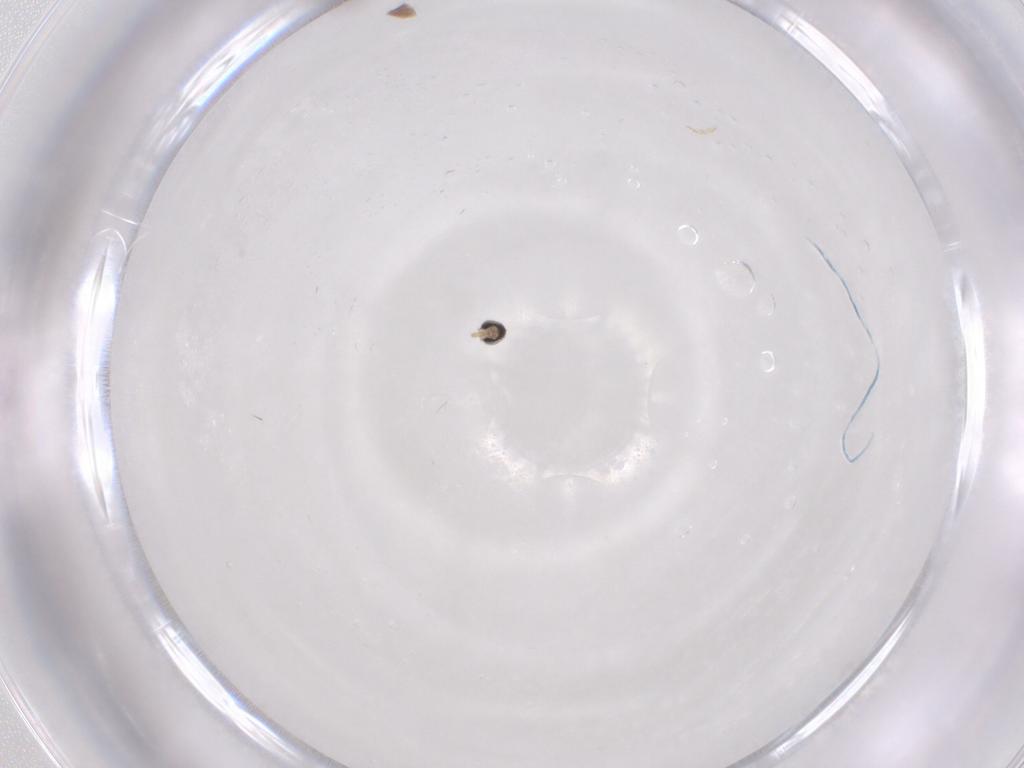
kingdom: Animalia
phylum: Arthropoda
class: Insecta
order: Diptera
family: Cecidomyiidae
